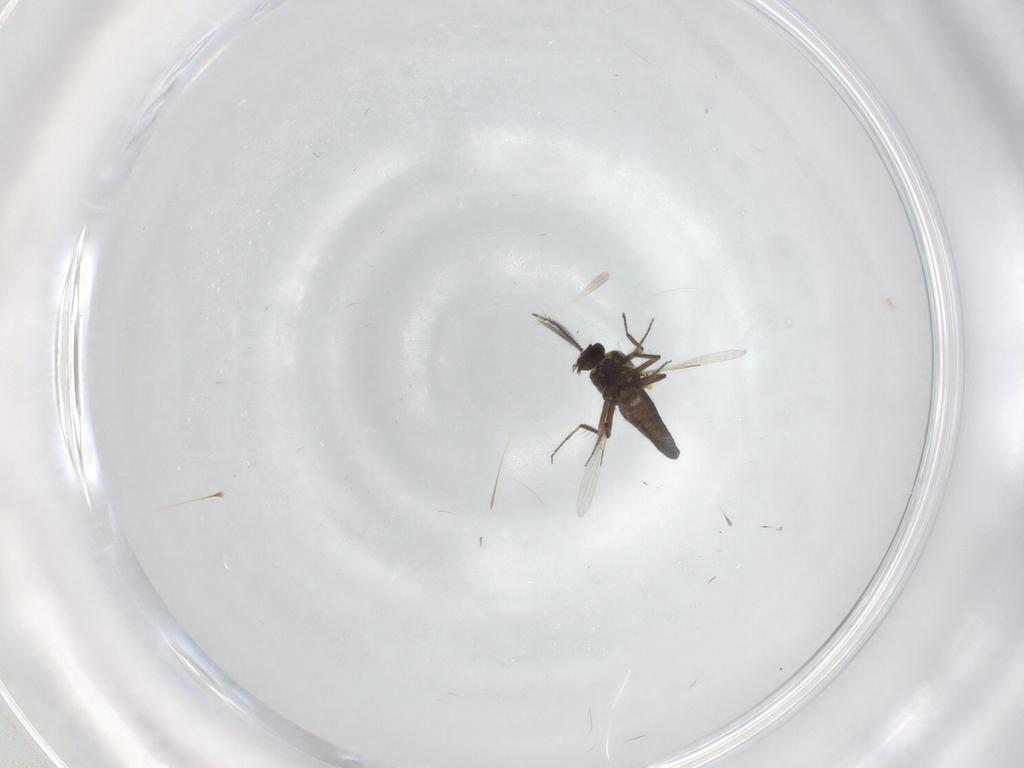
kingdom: Animalia
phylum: Arthropoda
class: Insecta
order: Diptera
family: Ceratopogonidae
